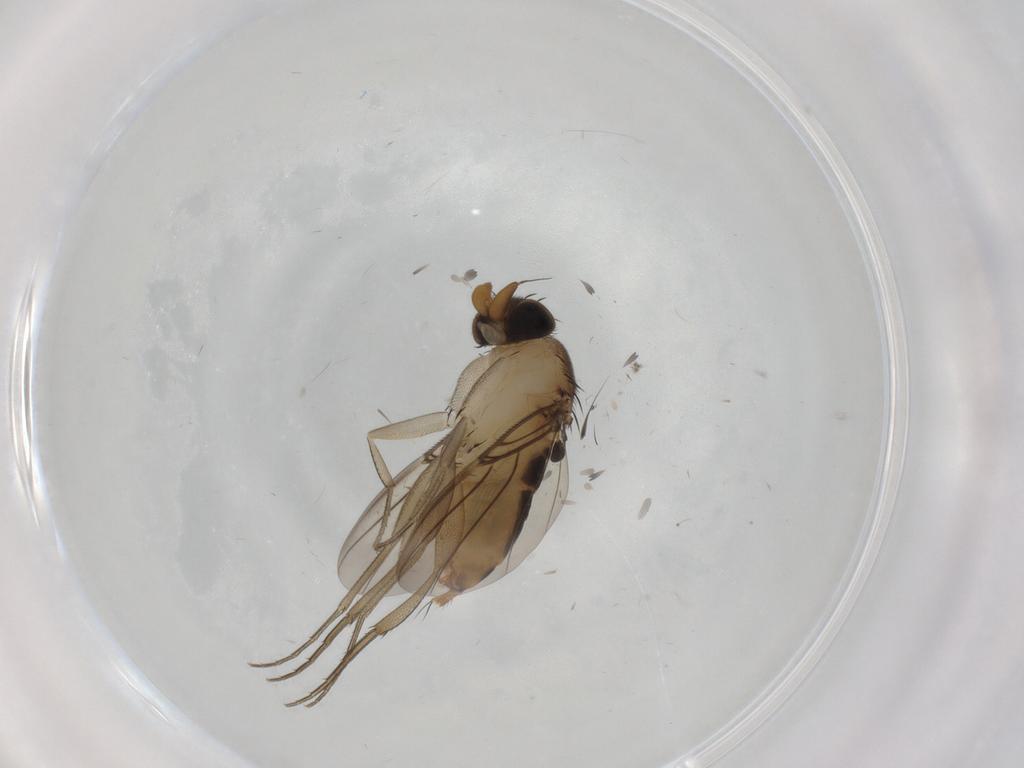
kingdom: Animalia
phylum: Arthropoda
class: Insecta
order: Diptera
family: Phoridae
